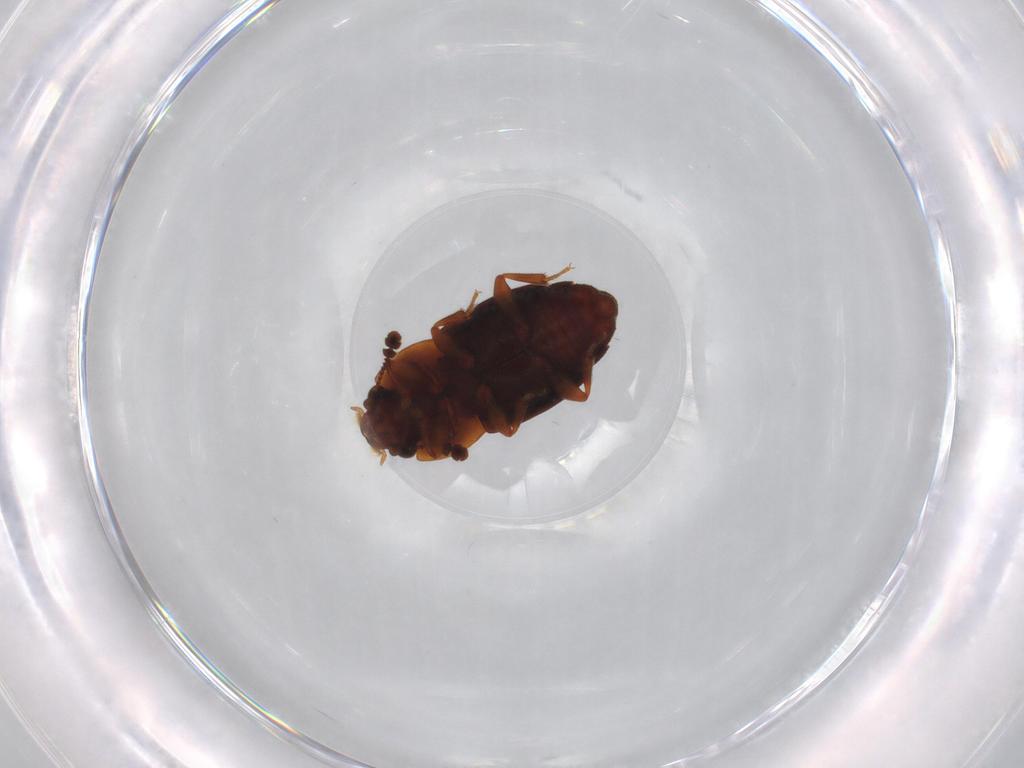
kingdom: Animalia
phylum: Arthropoda
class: Insecta
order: Coleoptera
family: Nitidulidae
